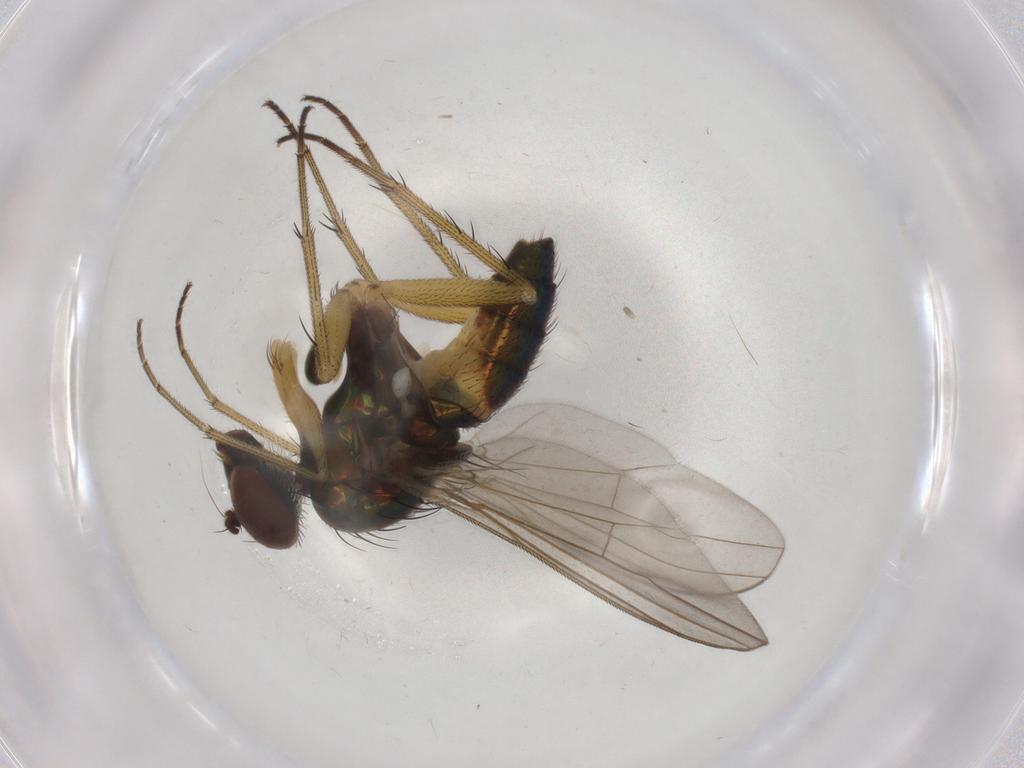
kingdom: Animalia
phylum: Arthropoda
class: Insecta
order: Diptera
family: Dolichopodidae
